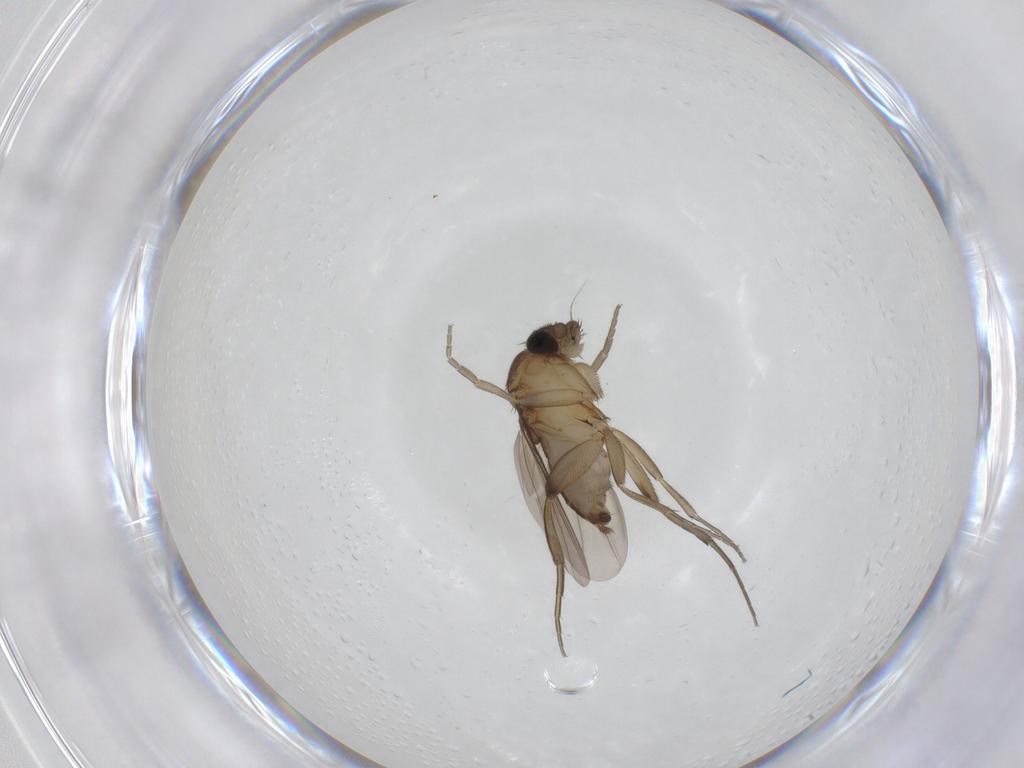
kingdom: Animalia
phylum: Arthropoda
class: Insecta
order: Diptera
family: Phoridae
